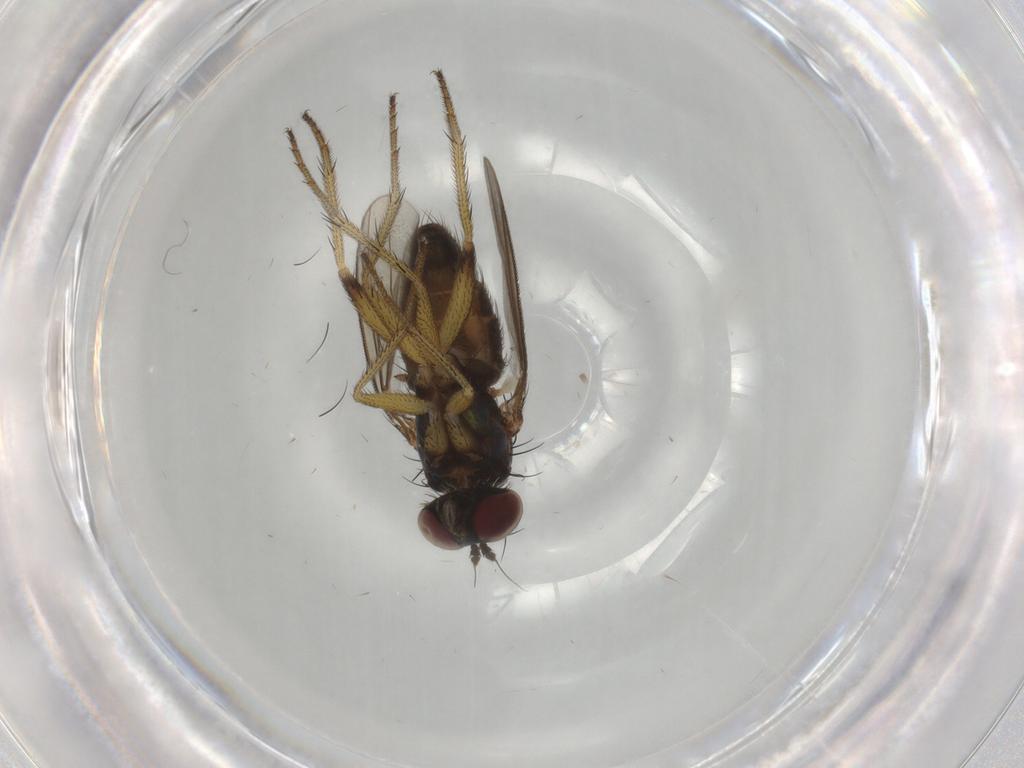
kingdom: Animalia
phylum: Arthropoda
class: Insecta
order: Diptera
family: Dolichopodidae
